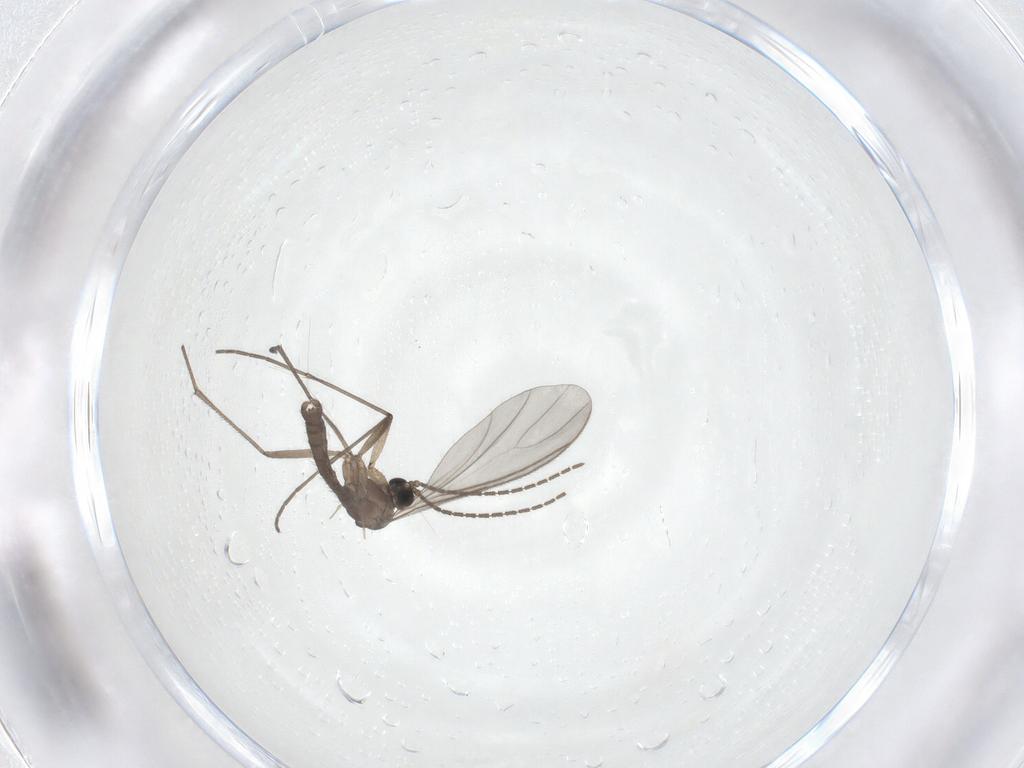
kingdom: Animalia
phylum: Arthropoda
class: Insecta
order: Diptera
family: Sciaridae
